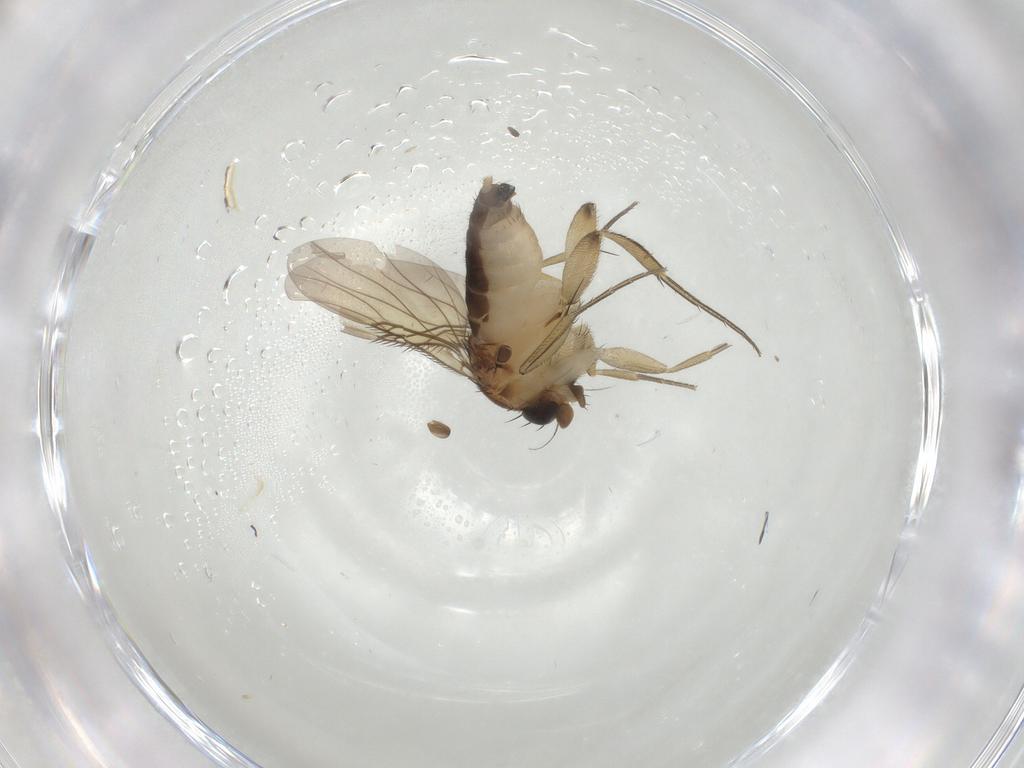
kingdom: Animalia
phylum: Arthropoda
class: Insecta
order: Diptera
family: Phoridae
